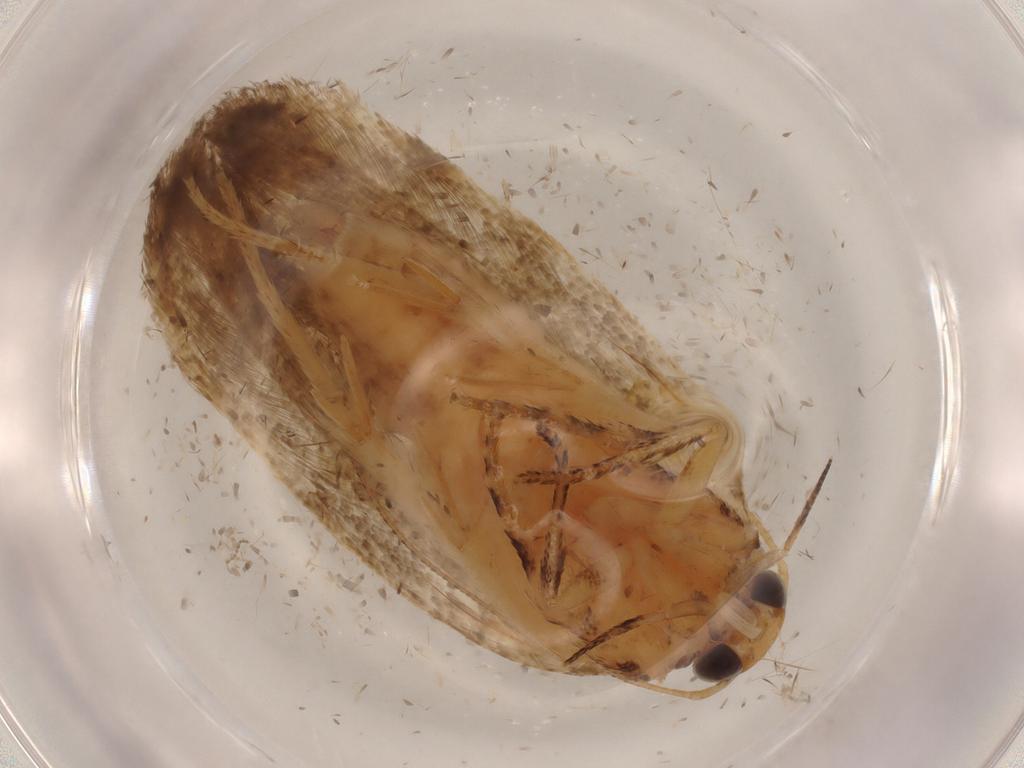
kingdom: Animalia
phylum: Arthropoda
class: Insecta
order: Lepidoptera
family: Gelechiidae
